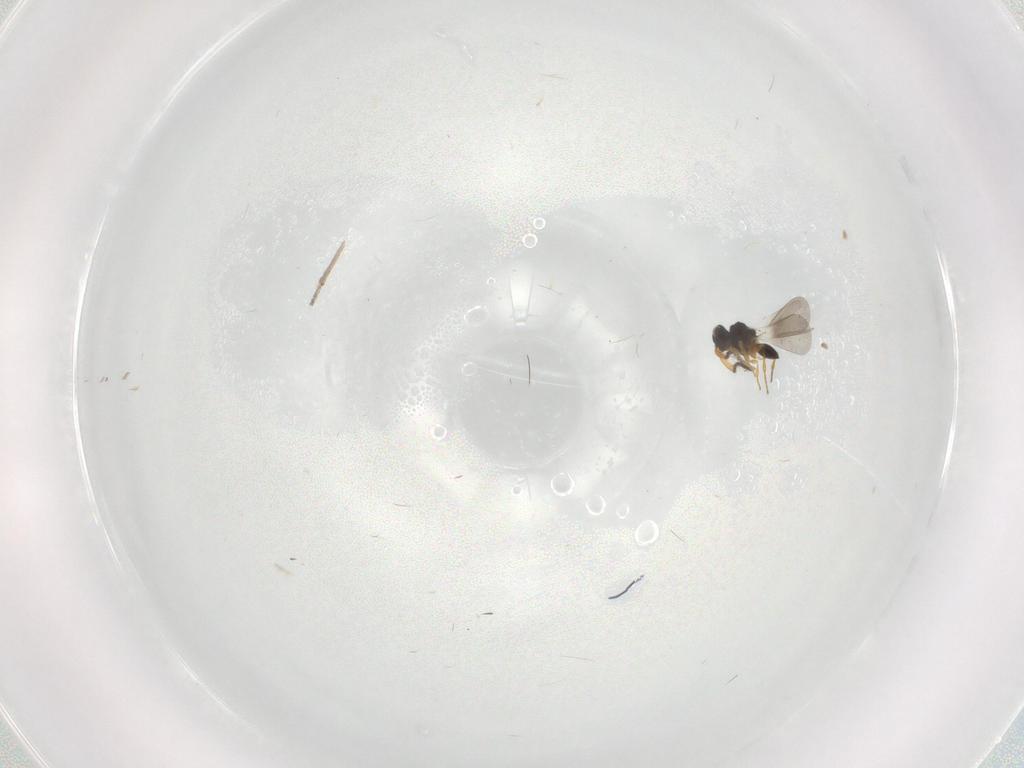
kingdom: Animalia
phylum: Arthropoda
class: Insecta
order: Hymenoptera
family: Platygastridae
